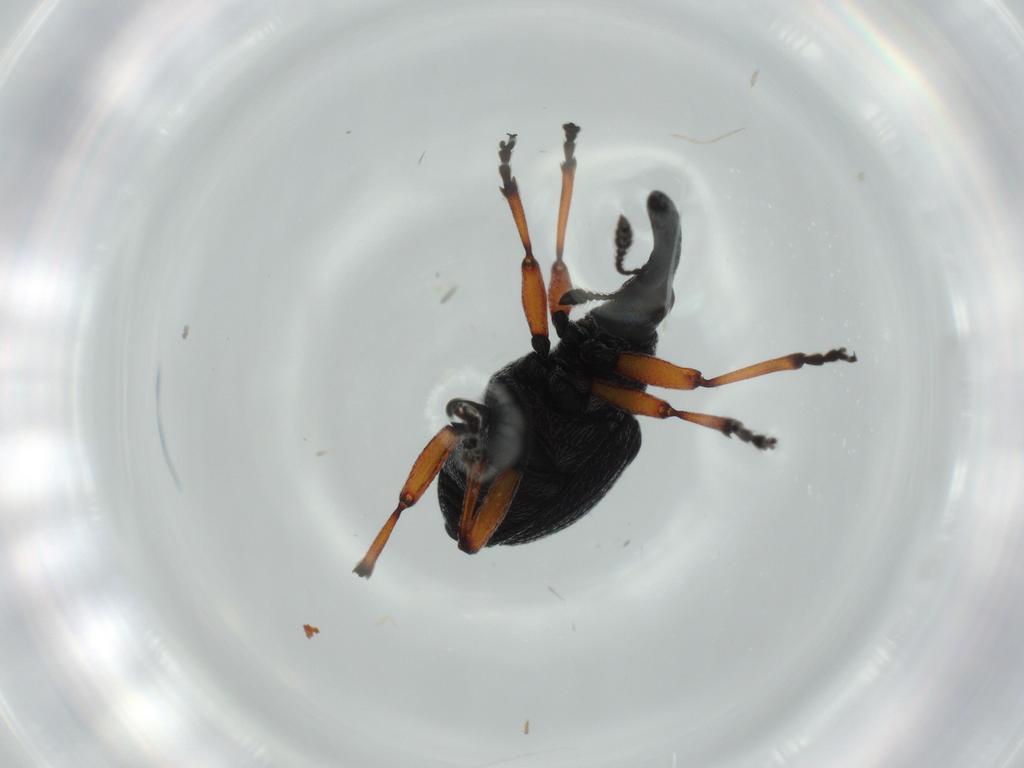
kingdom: Animalia
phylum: Arthropoda
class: Insecta
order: Coleoptera
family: Brentidae
